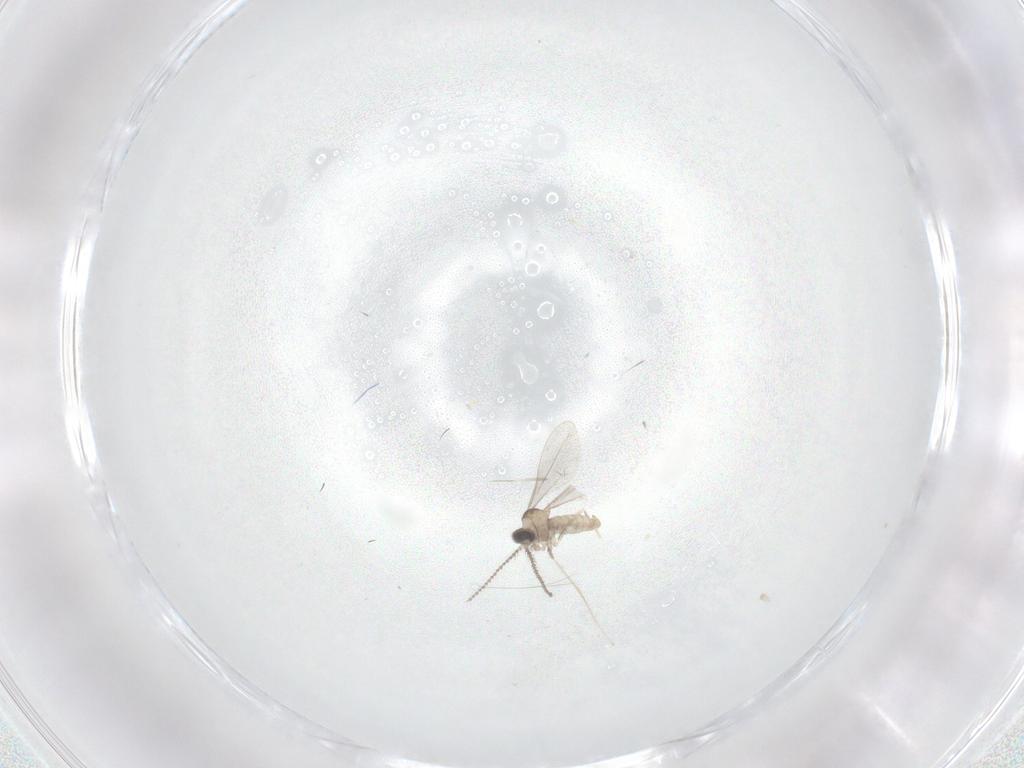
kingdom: Animalia
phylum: Arthropoda
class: Insecta
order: Diptera
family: Cecidomyiidae
